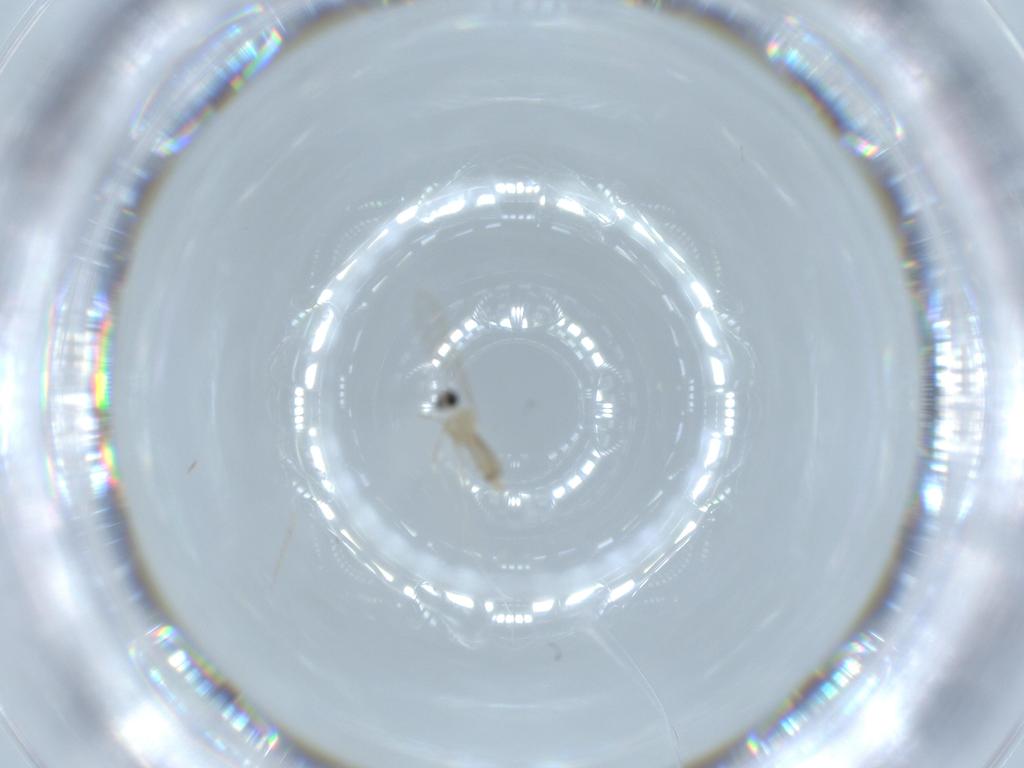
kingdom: Animalia
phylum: Arthropoda
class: Insecta
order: Diptera
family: Cecidomyiidae
